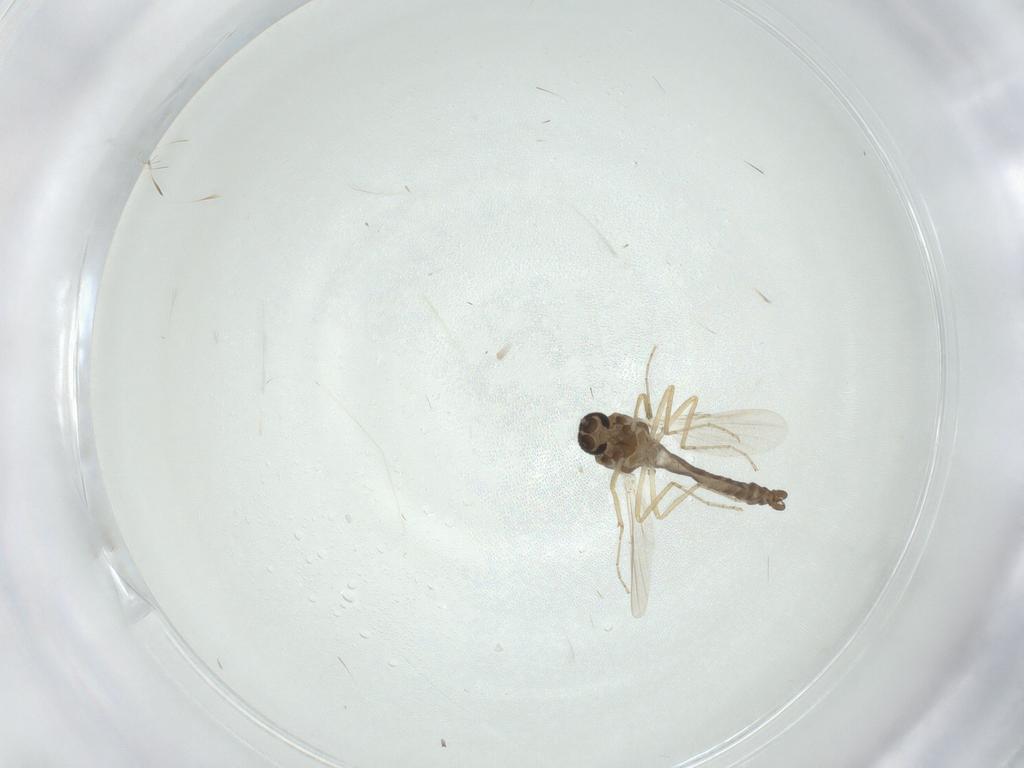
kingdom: Animalia
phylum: Arthropoda
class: Insecta
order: Diptera
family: Ceratopogonidae
